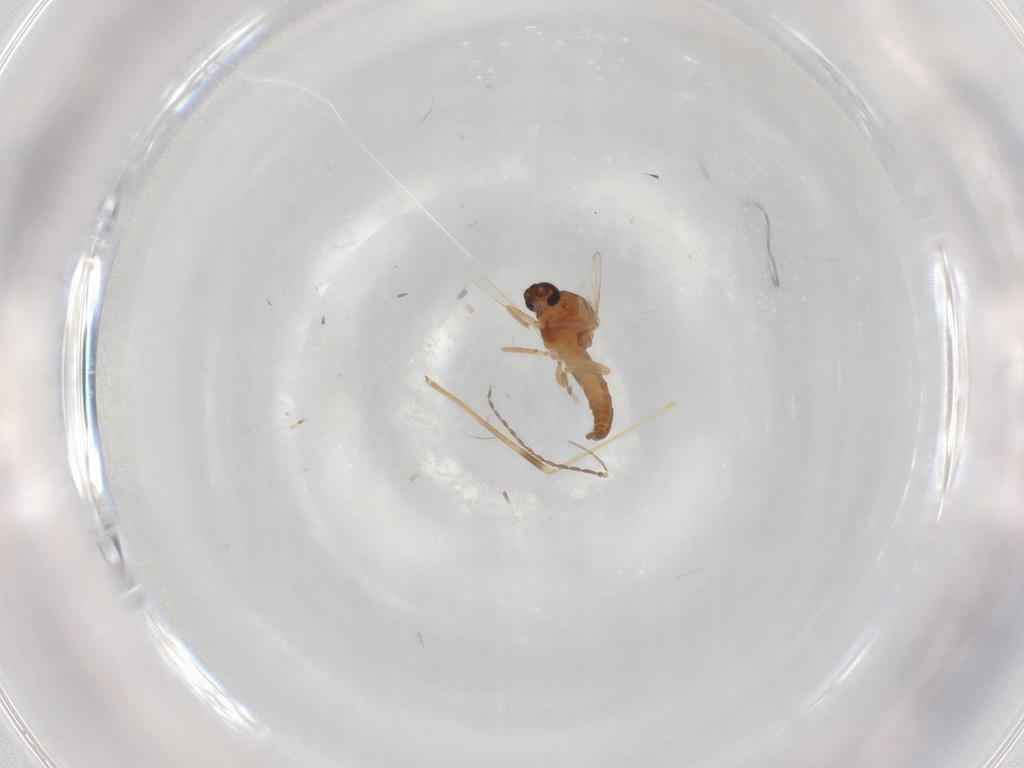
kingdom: Animalia
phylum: Arthropoda
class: Insecta
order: Diptera
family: Ceratopogonidae
